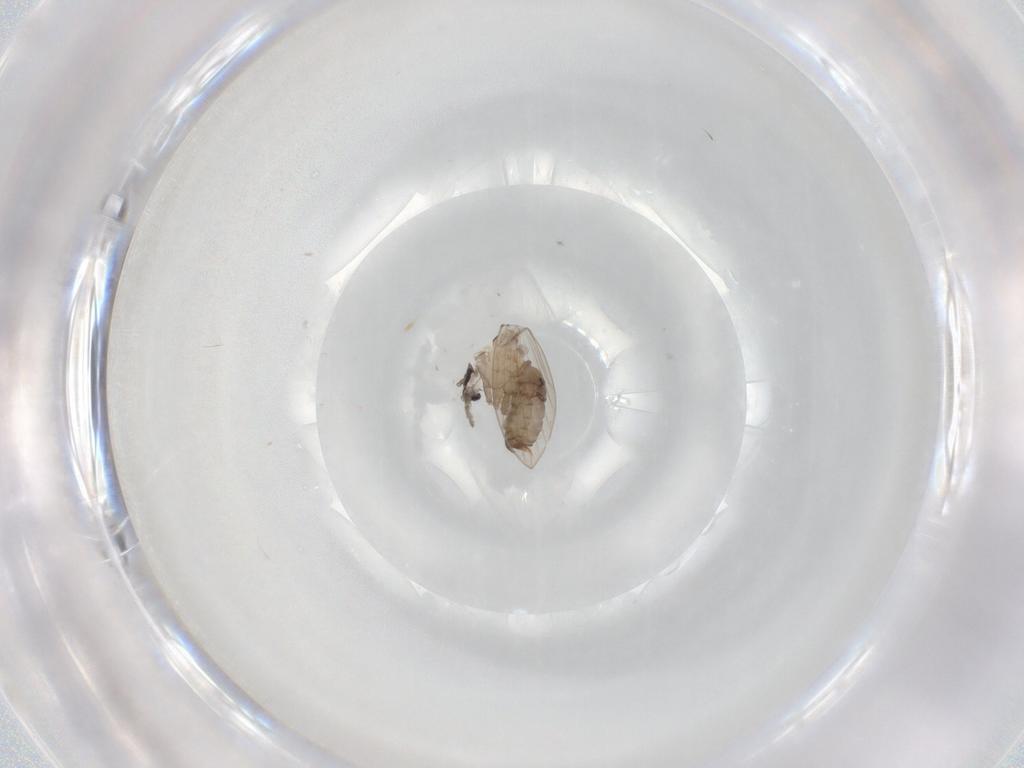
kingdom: Animalia
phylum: Arthropoda
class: Insecta
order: Diptera
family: Psychodidae
